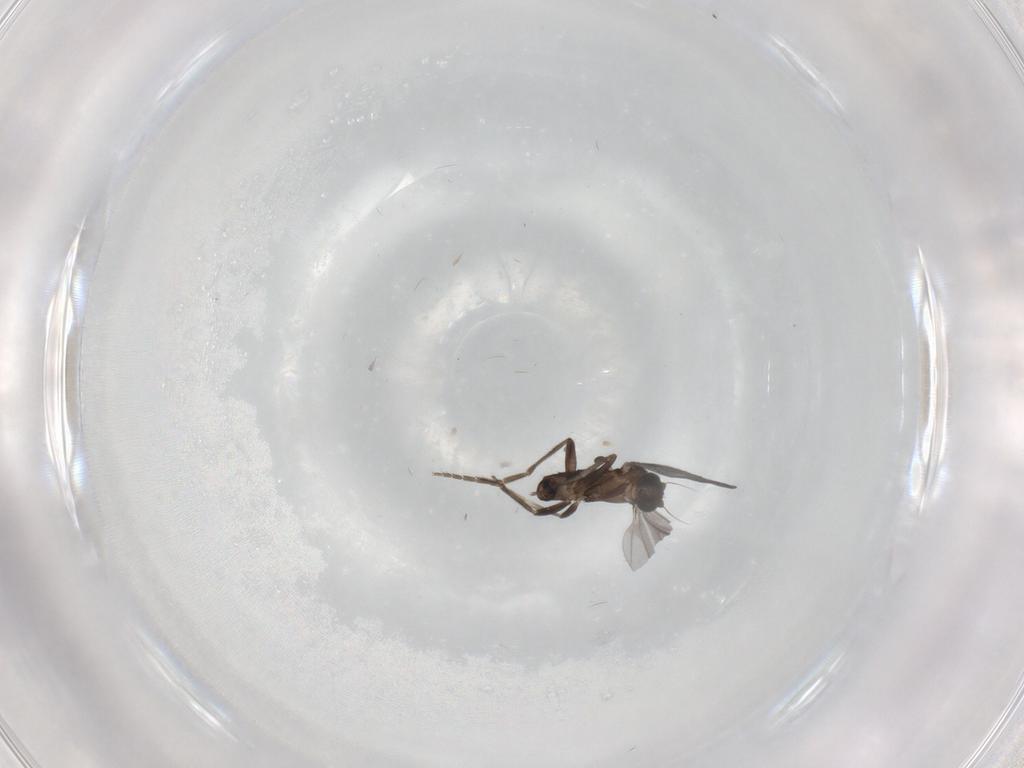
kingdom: Animalia
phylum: Arthropoda
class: Insecta
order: Diptera
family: Phoridae
